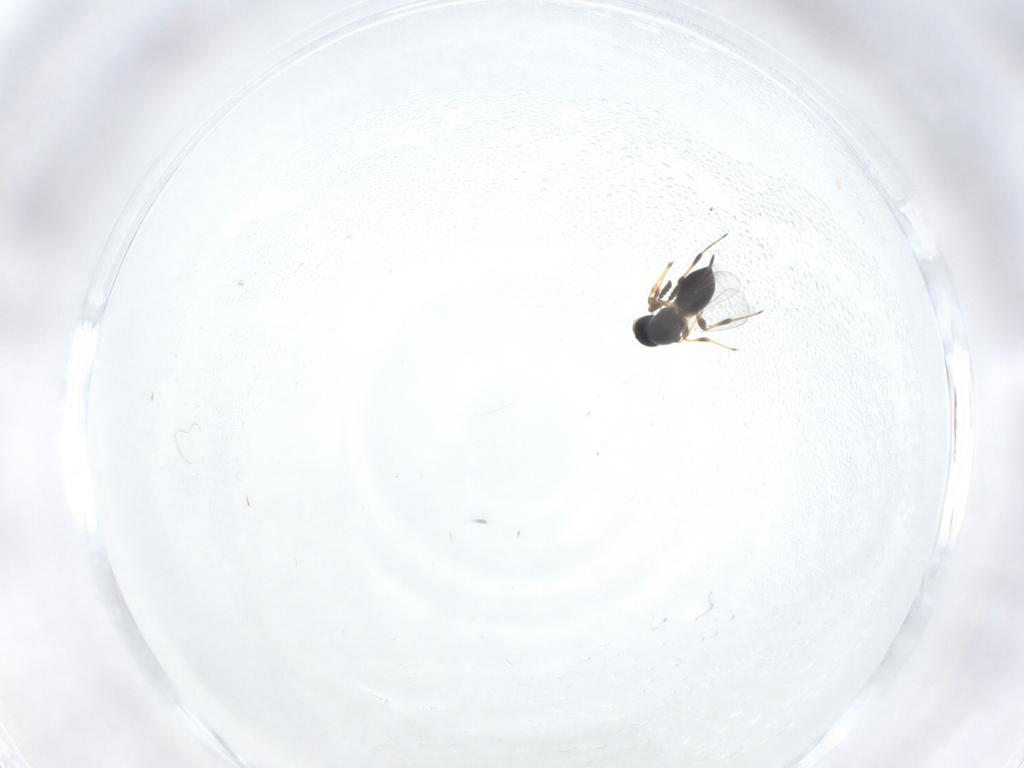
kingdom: Animalia
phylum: Arthropoda
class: Insecta
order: Hymenoptera
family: Platygastridae
